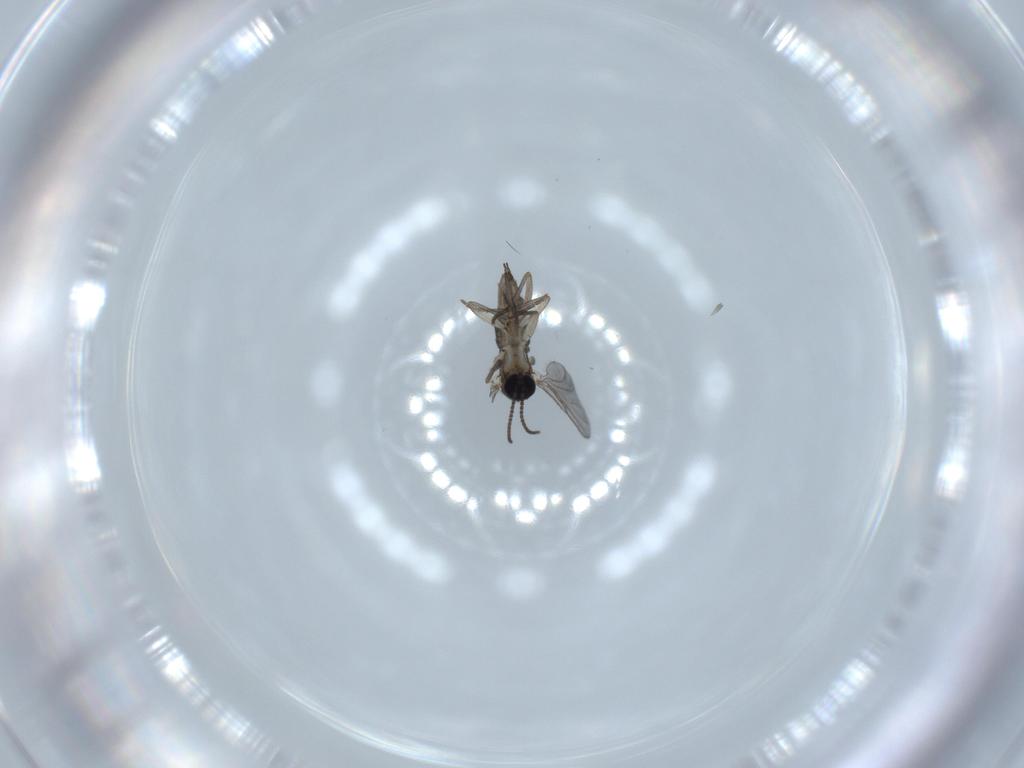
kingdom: Animalia
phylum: Arthropoda
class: Insecta
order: Diptera
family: Sciaridae
